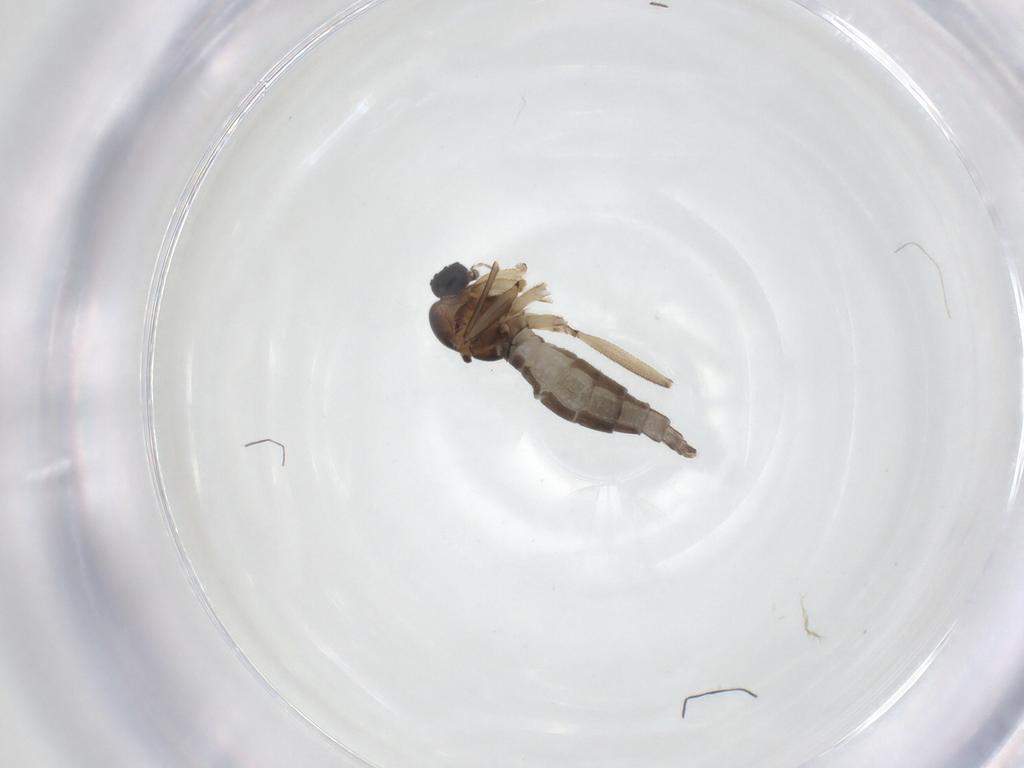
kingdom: Animalia
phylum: Arthropoda
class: Insecta
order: Diptera
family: Sciaridae
